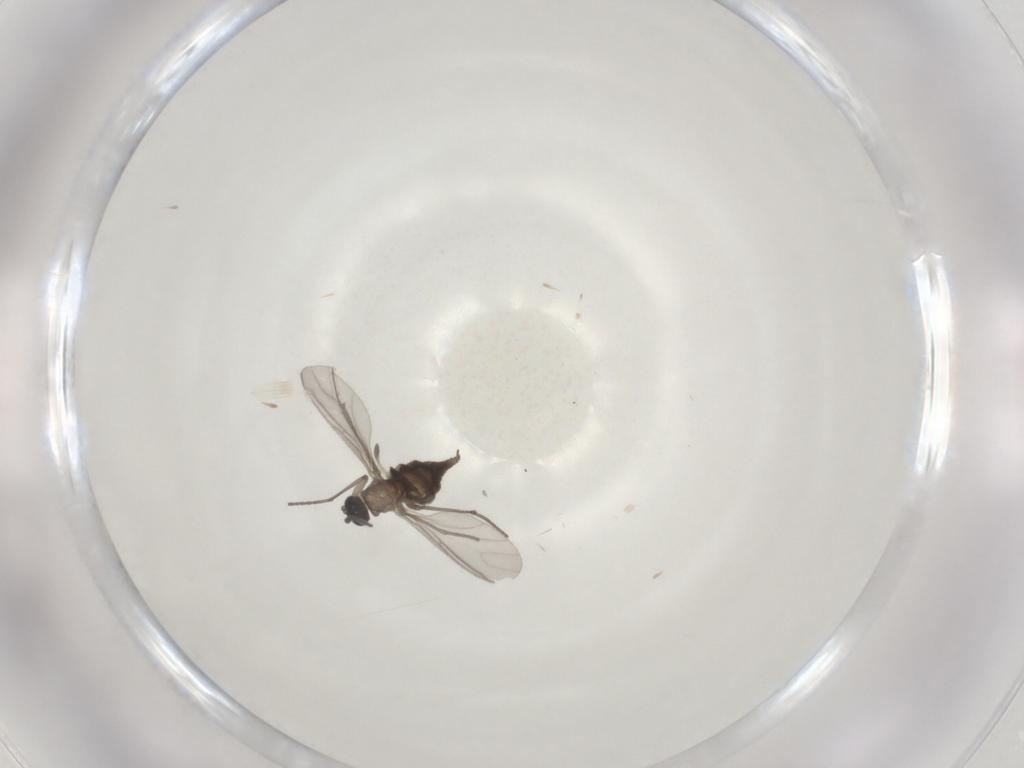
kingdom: Animalia
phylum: Arthropoda
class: Insecta
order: Diptera
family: Sciaridae
